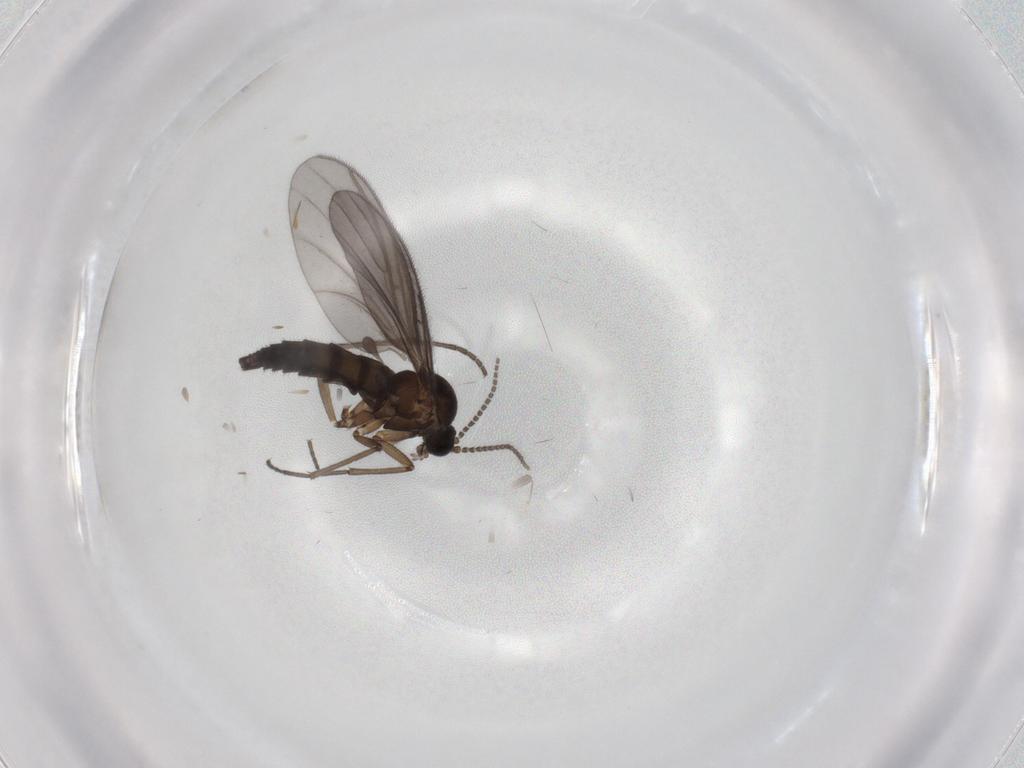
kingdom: Animalia
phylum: Arthropoda
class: Insecta
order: Diptera
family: Sciaridae
